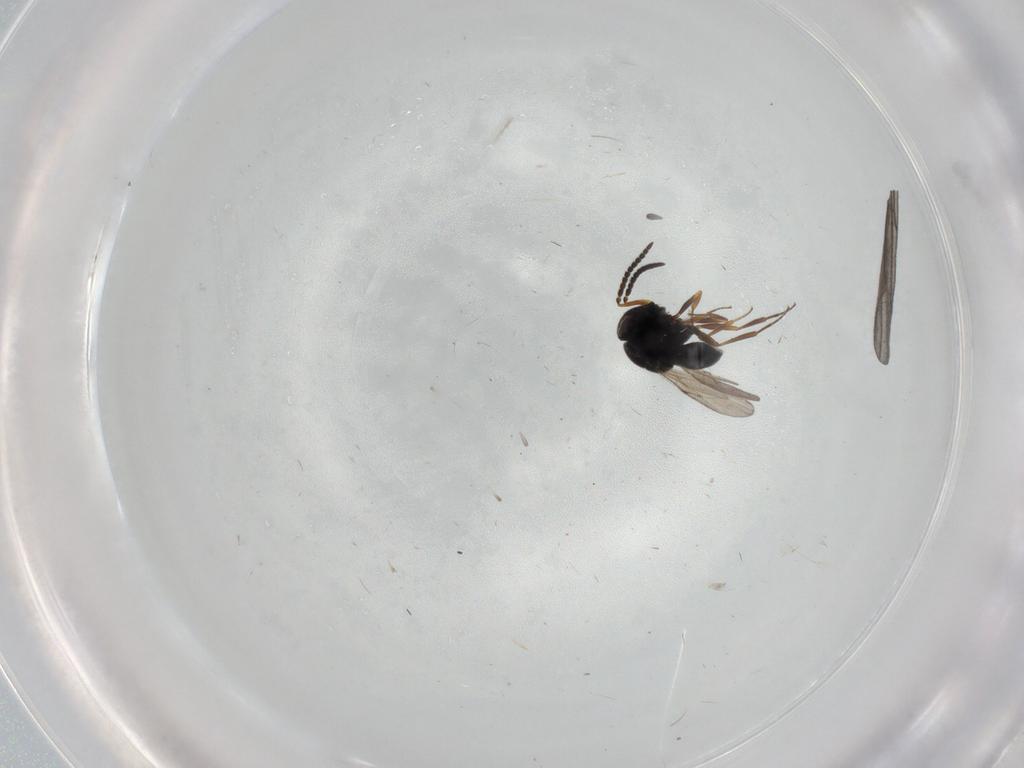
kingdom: Animalia
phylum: Arthropoda
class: Insecta
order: Hymenoptera
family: Scelionidae
